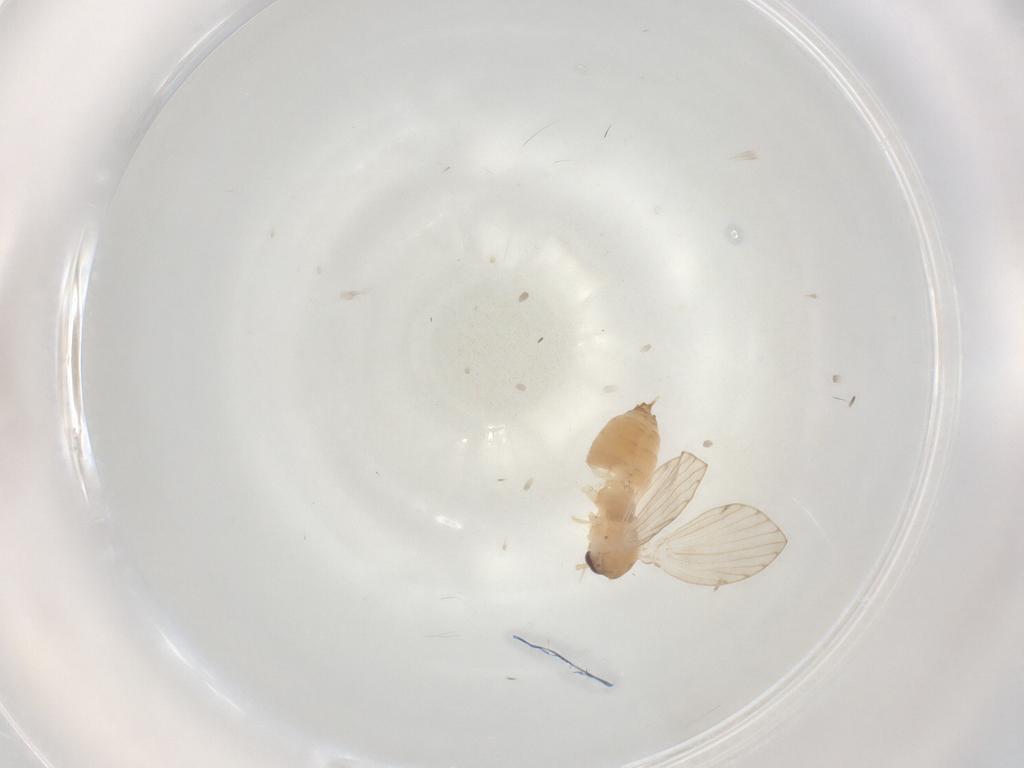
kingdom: Animalia
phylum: Arthropoda
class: Insecta
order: Diptera
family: Psychodidae
